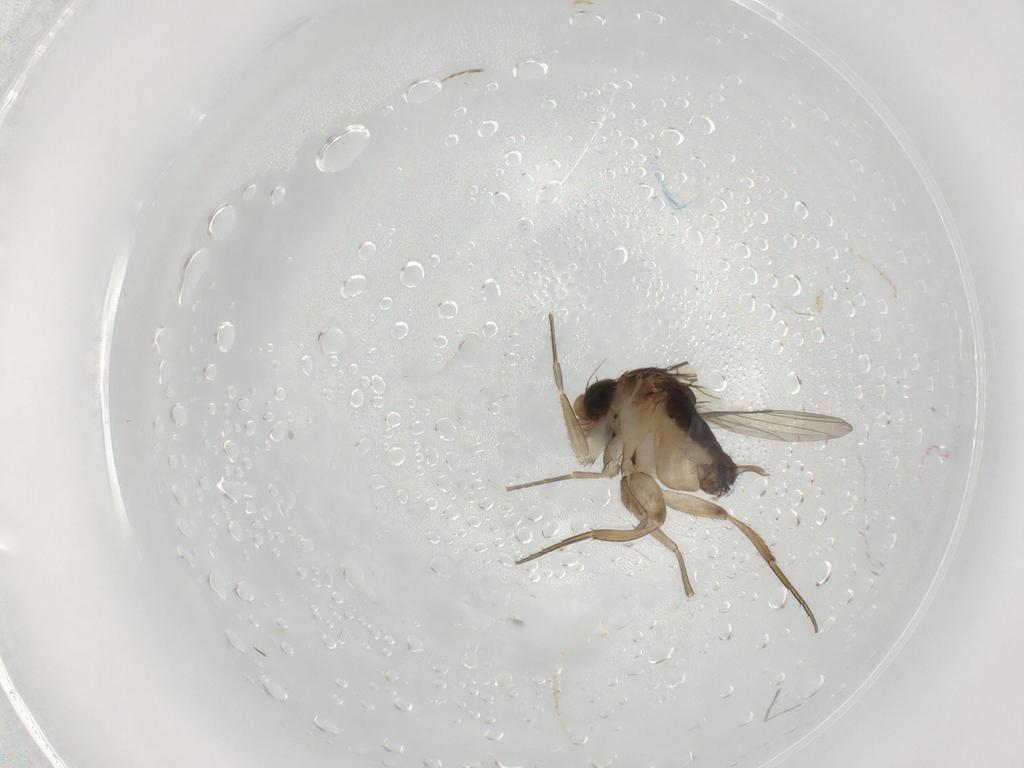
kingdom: Animalia
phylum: Arthropoda
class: Insecta
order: Diptera
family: Phoridae
